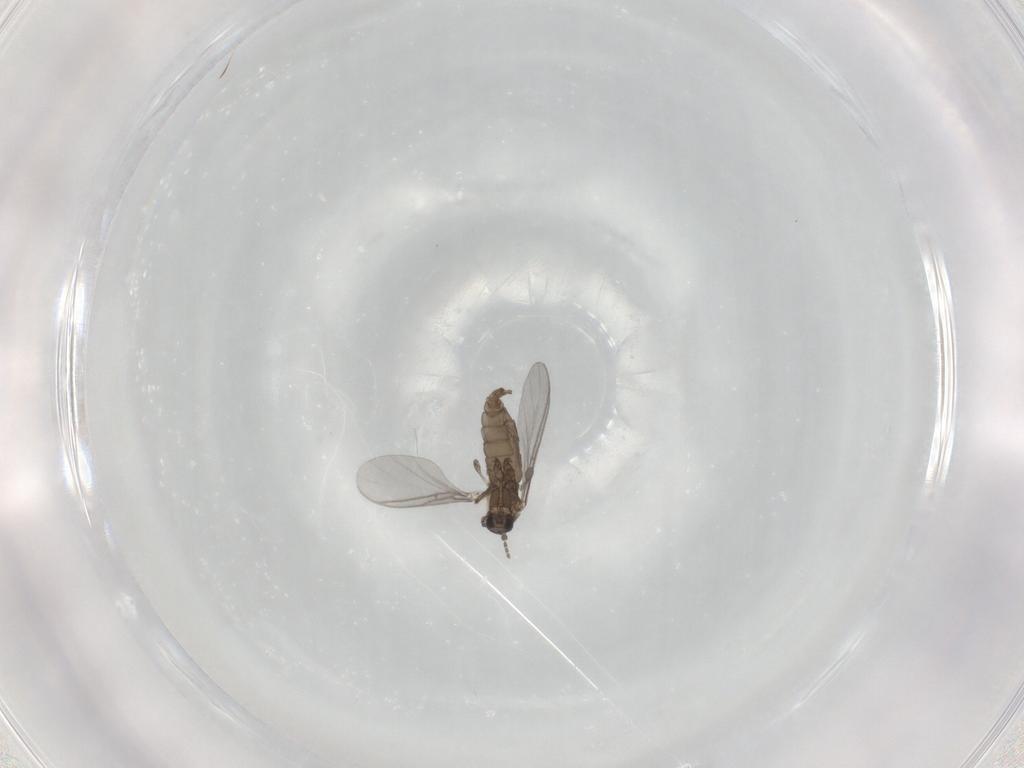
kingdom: Animalia
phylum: Arthropoda
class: Insecta
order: Diptera
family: Sciaridae
